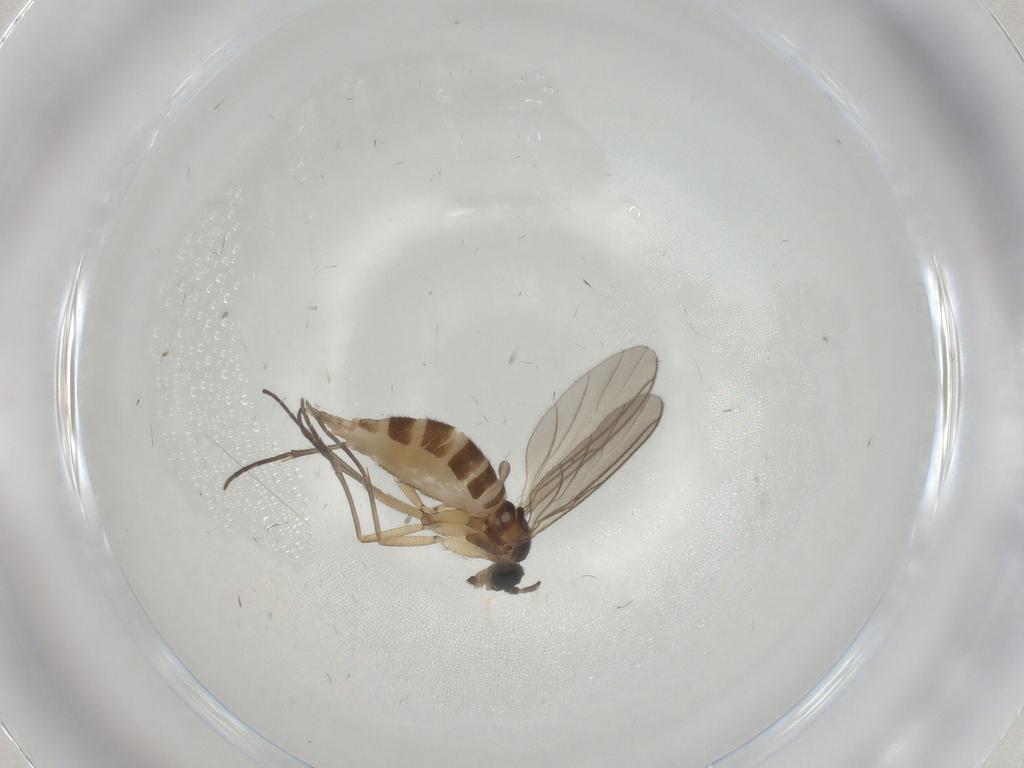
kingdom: Animalia
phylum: Arthropoda
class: Insecta
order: Diptera
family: Sciaridae
